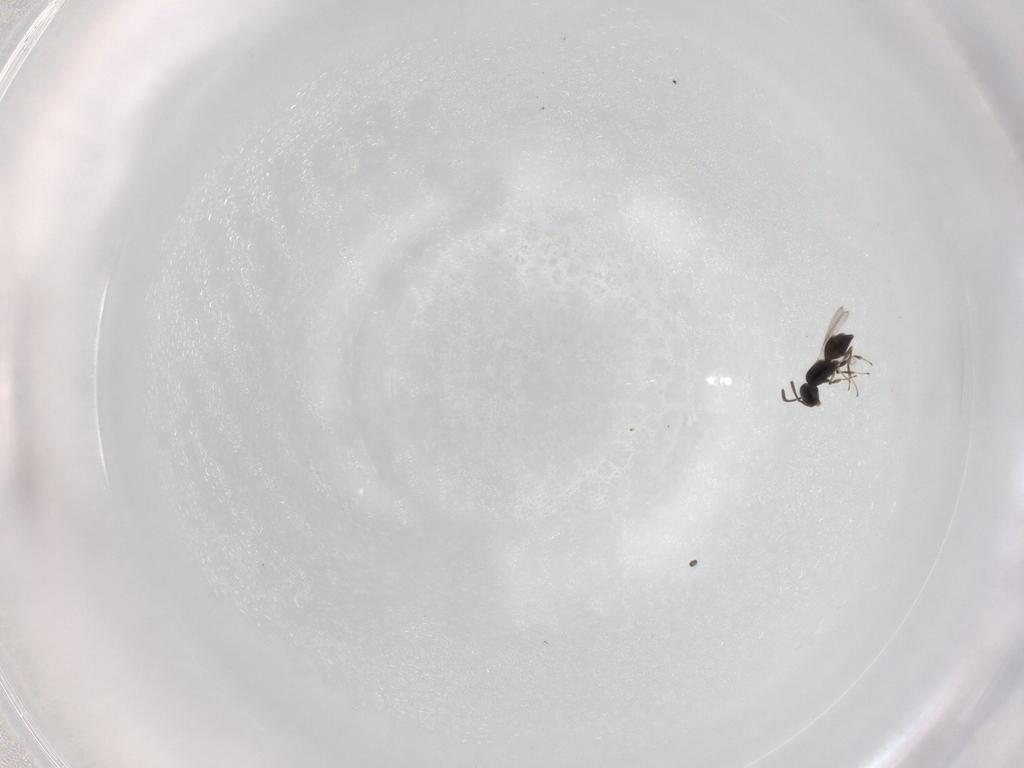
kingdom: Animalia
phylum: Arthropoda
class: Insecta
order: Hymenoptera
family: Scelionidae
